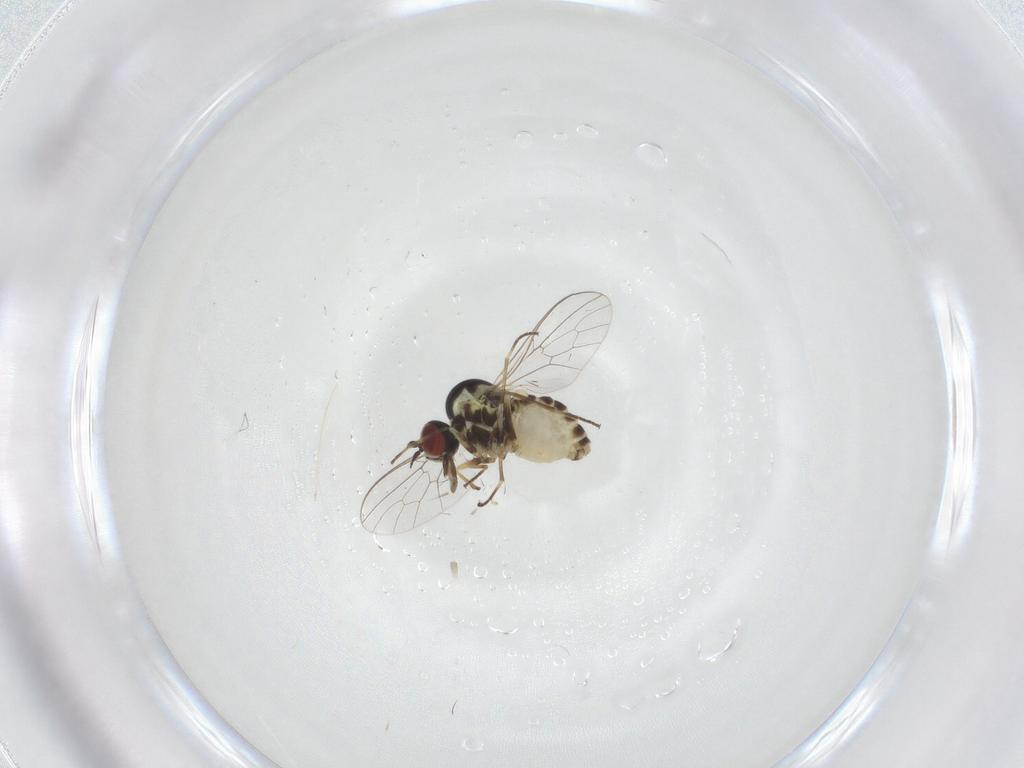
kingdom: Animalia
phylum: Arthropoda
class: Insecta
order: Diptera
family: Bombyliidae
